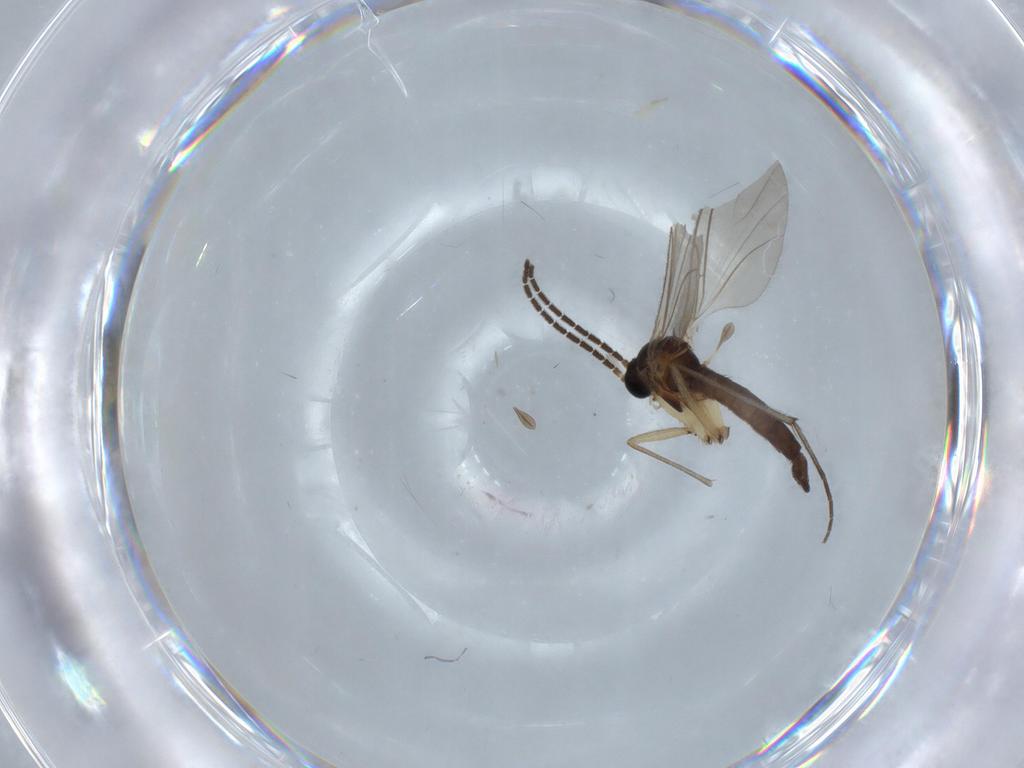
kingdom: Animalia
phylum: Arthropoda
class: Insecta
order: Diptera
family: Sciaridae
